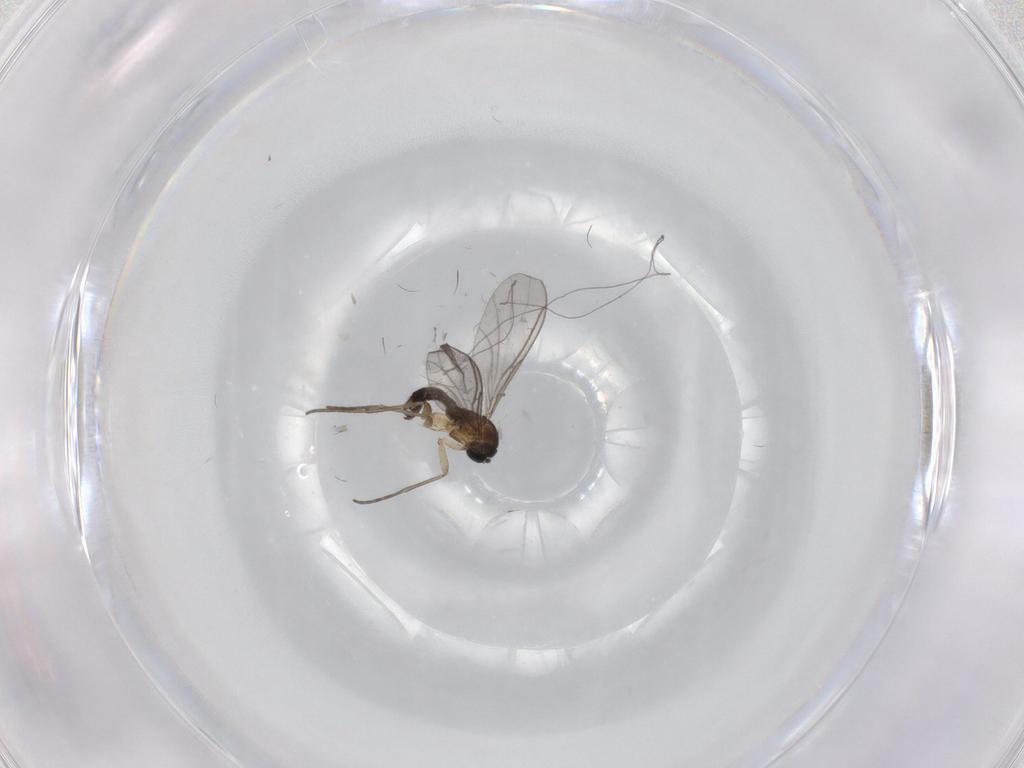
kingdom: Animalia
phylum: Arthropoda
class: Insecta
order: Diptera
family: Sciaridae
